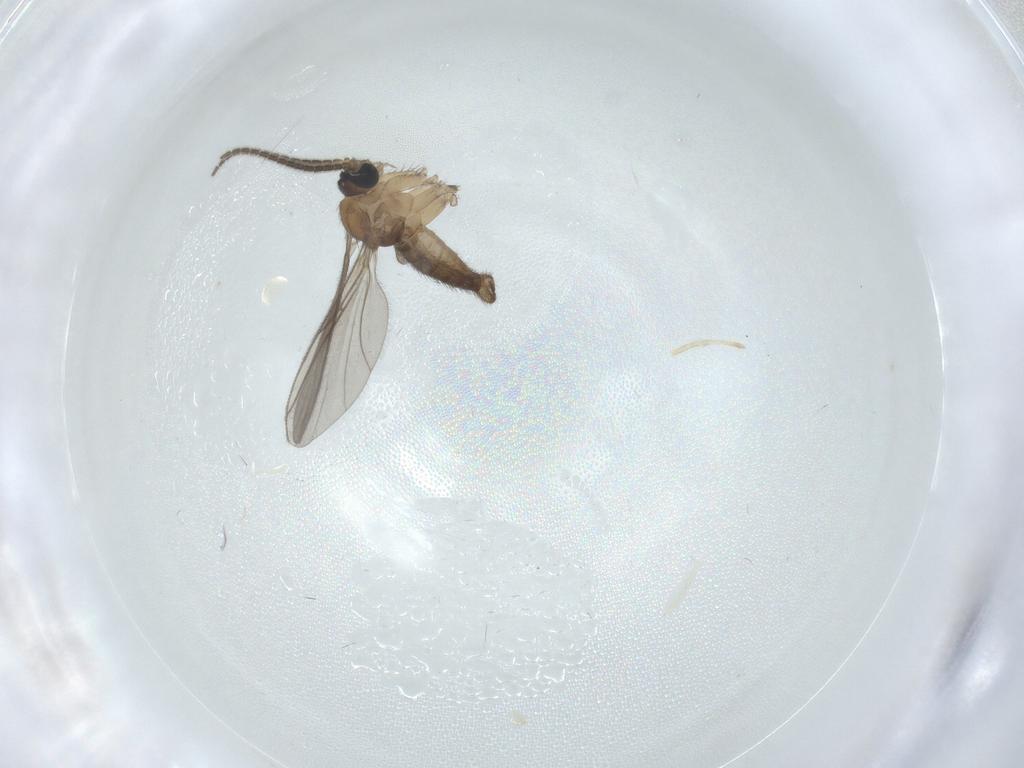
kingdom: Animalia
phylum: Arthropoda
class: Insecta
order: Diptera
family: Sciaridae
